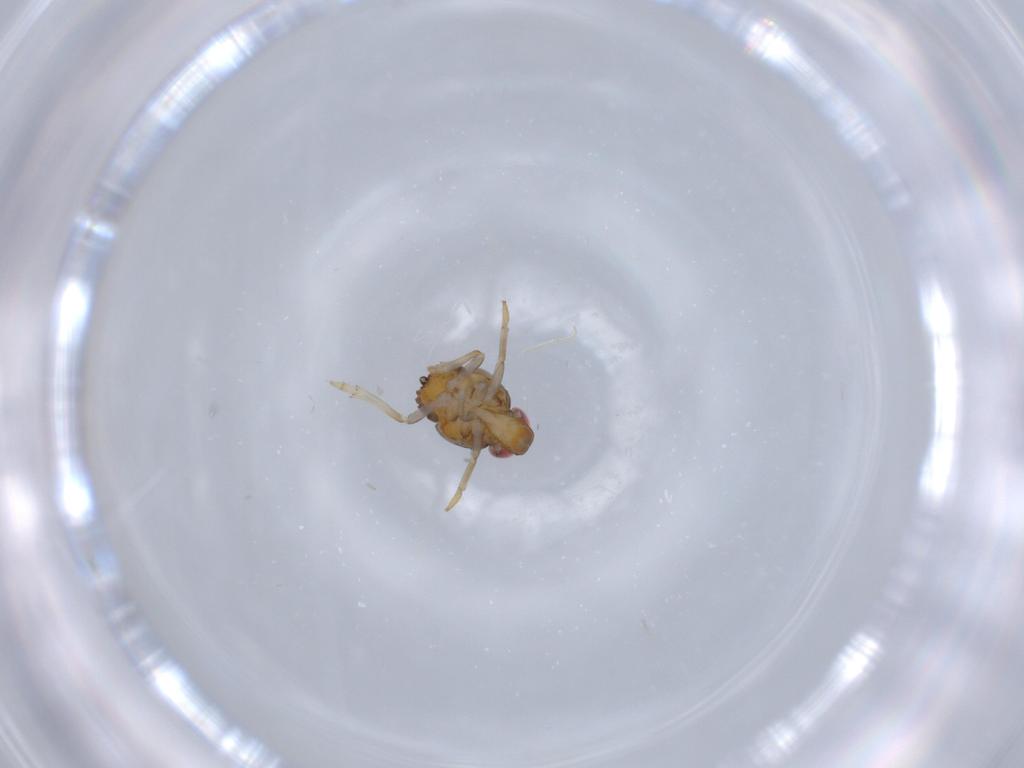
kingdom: Animalia
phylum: Arthropoda
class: Insecta
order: Hemiptera
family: Issidae
